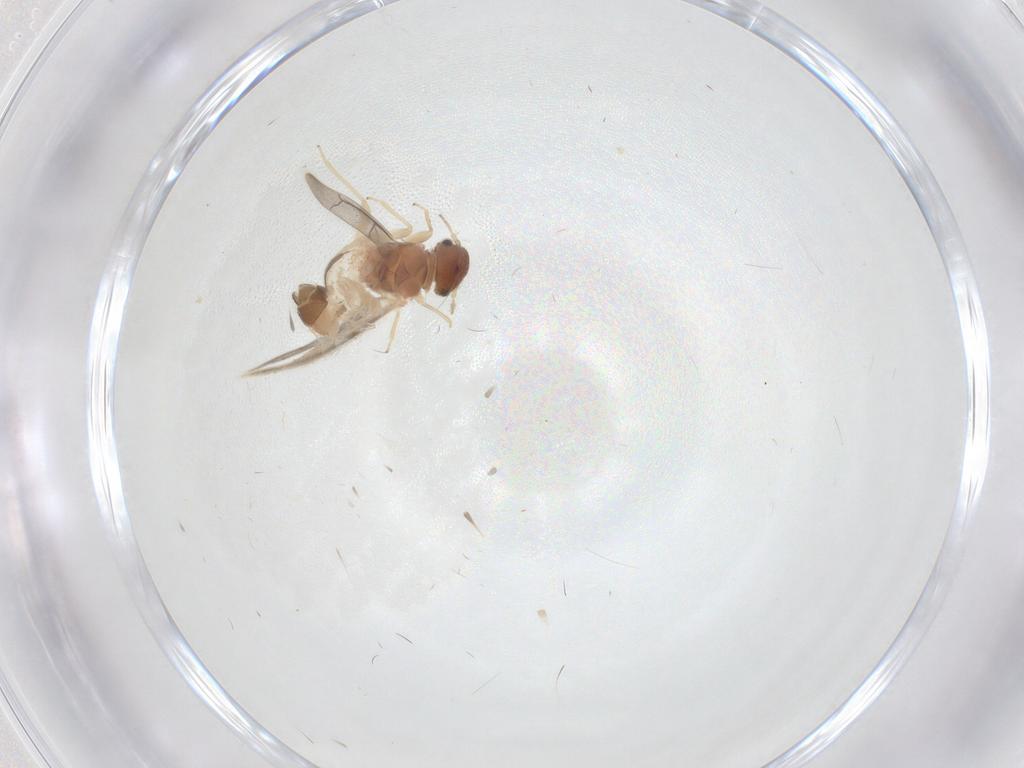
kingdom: Animalia
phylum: Arthropoda
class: Insecta
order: Psocodea
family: Archipsocidae
